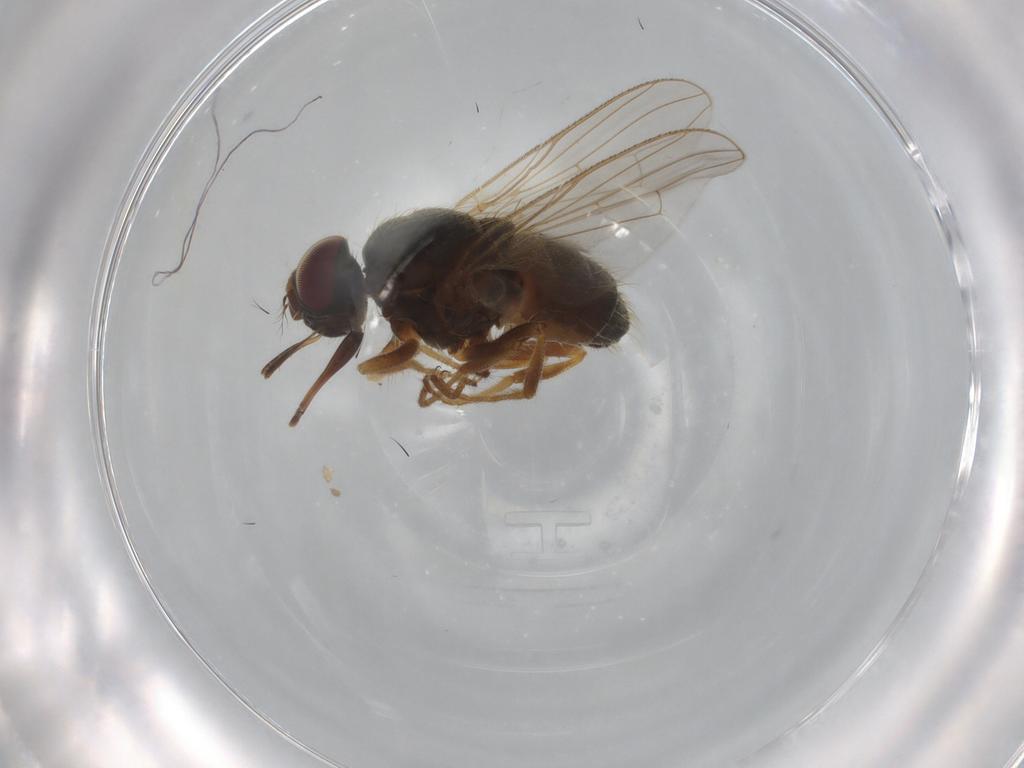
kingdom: Animalia
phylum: Arthropoda
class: Insecta
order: Diptera
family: Muscidae
